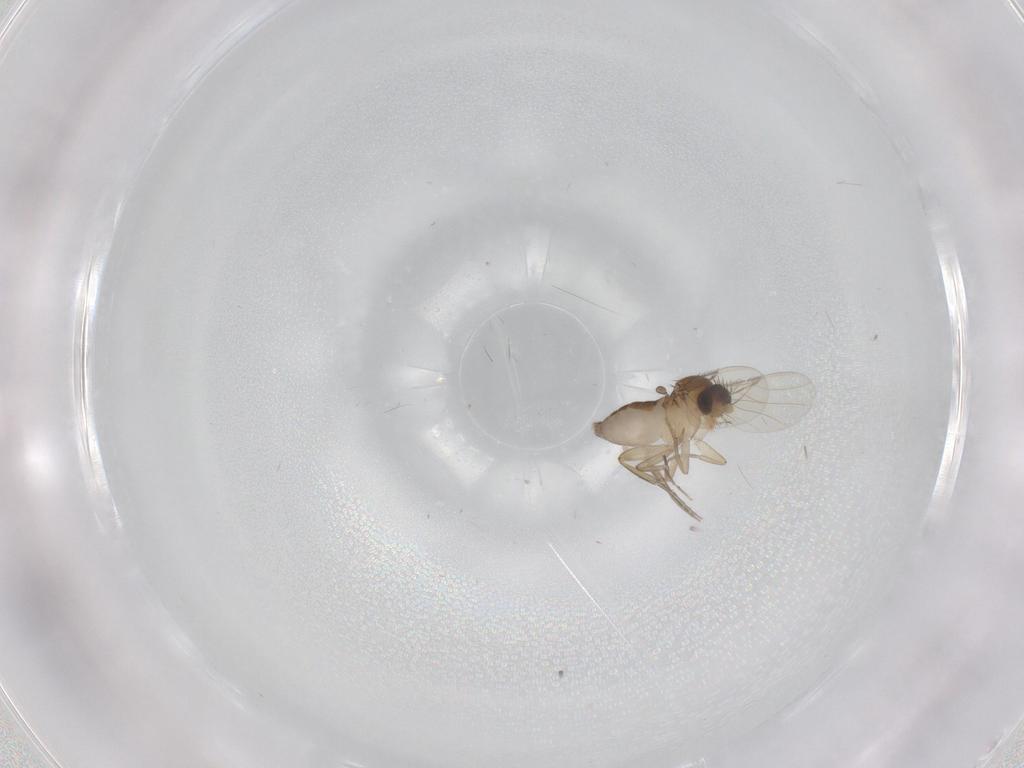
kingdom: Animalia
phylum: Arthropoda
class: Insecta
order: Diptera
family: Phoridae
